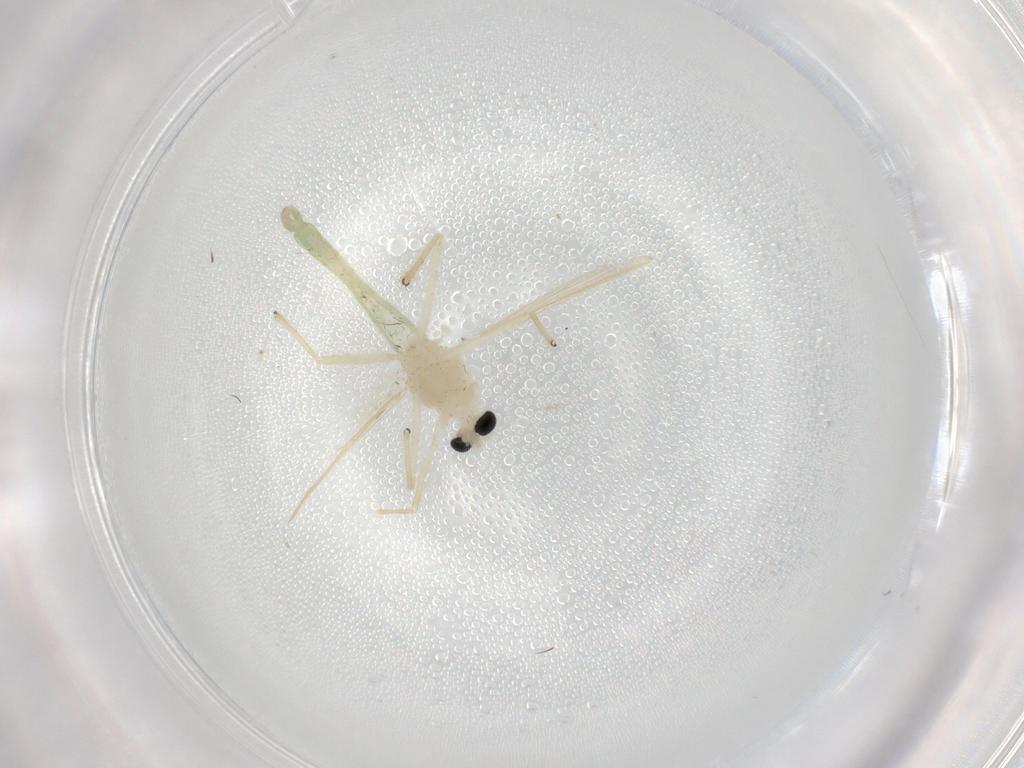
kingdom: Animalia
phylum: Arthropoda
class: Insecta
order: Diptera
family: Chironomidae
